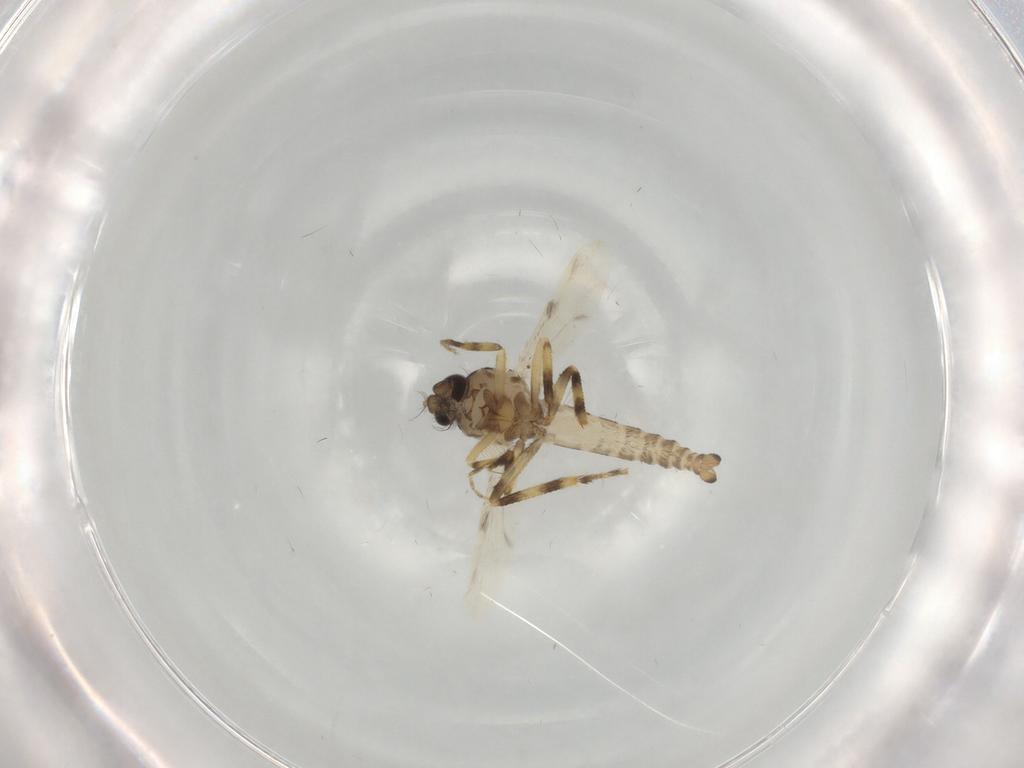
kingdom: Animalia
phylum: Arthropoda
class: Insecta
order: Diptera
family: Ceratopogonidae
